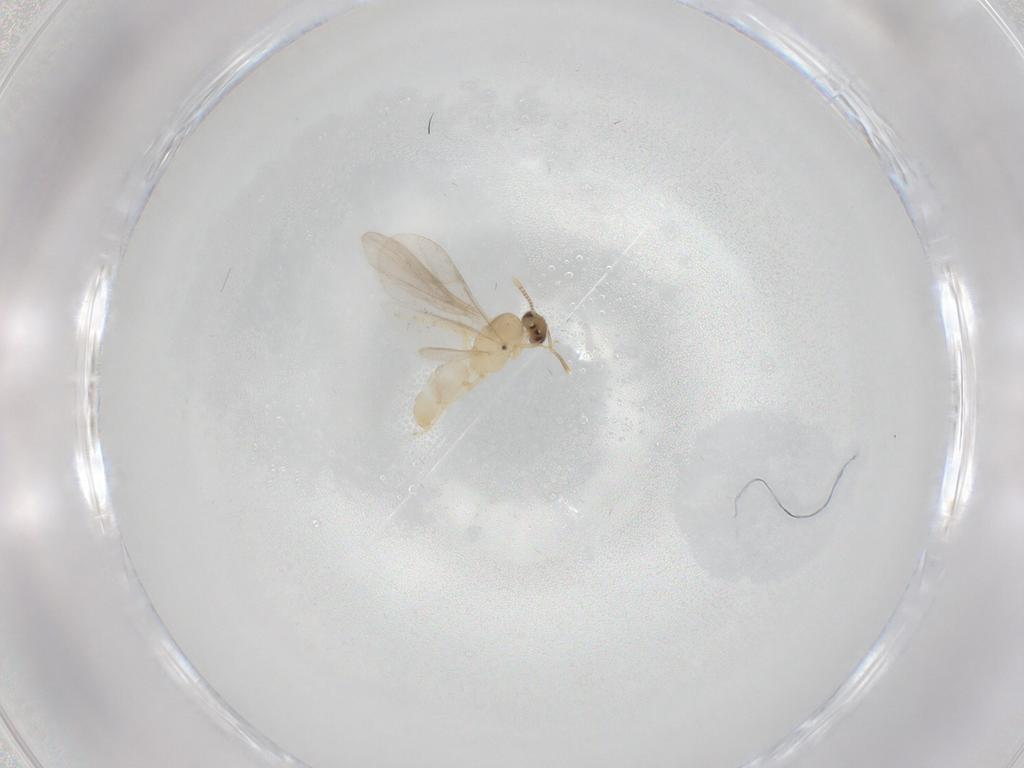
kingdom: Animalia
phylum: Arthropoda
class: Insecta
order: Hymenoptera
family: Formicidae
